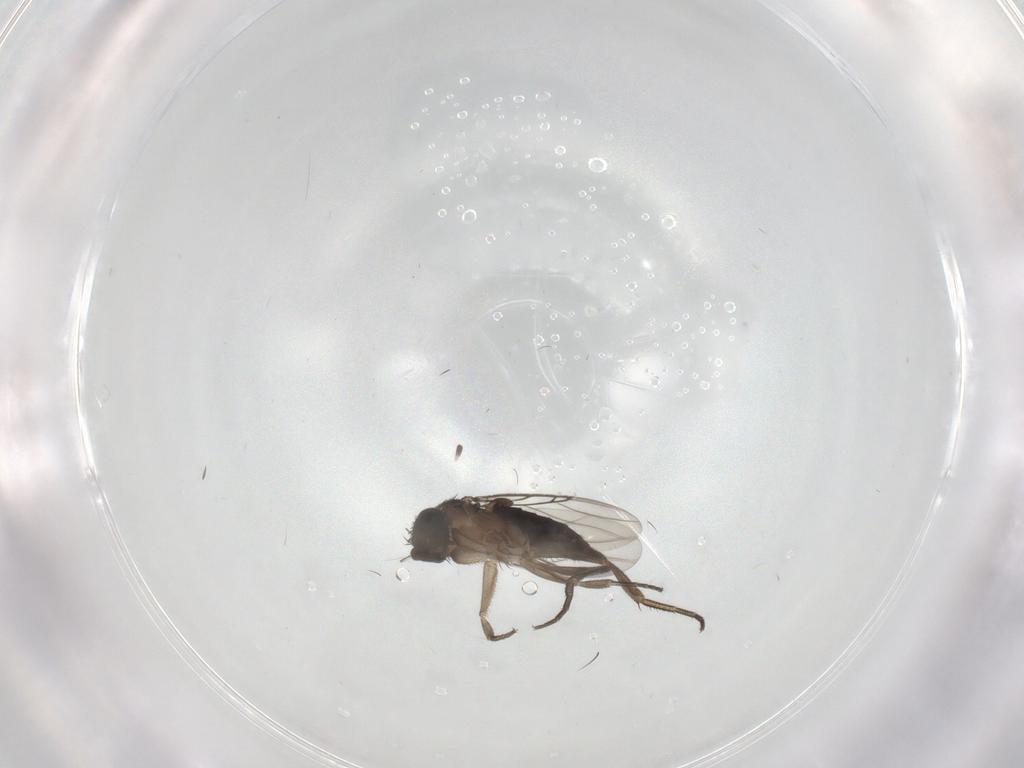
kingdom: Animalia
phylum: Arthropoda
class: Insecta
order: Diptera
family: Phoridae
